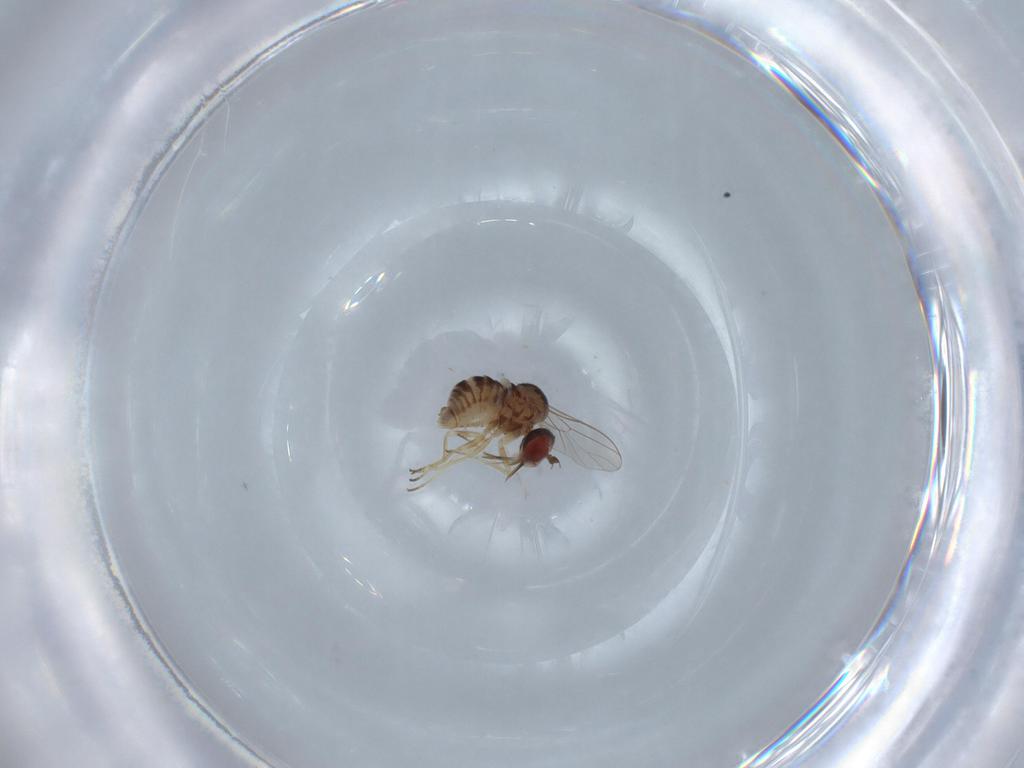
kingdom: Animalia
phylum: Arthropoda
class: Insecta
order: Diptera
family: Mythicomyiidae
